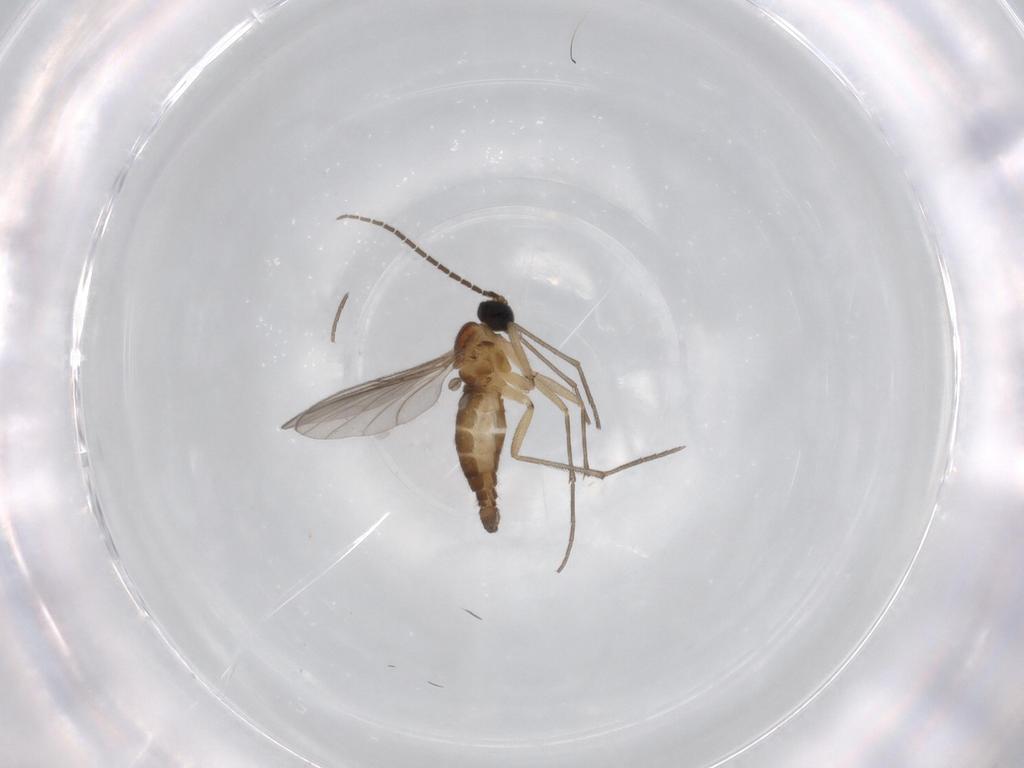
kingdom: Animalia
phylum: Arthropoda
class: Insecta
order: Diptera
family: Sciaridae
